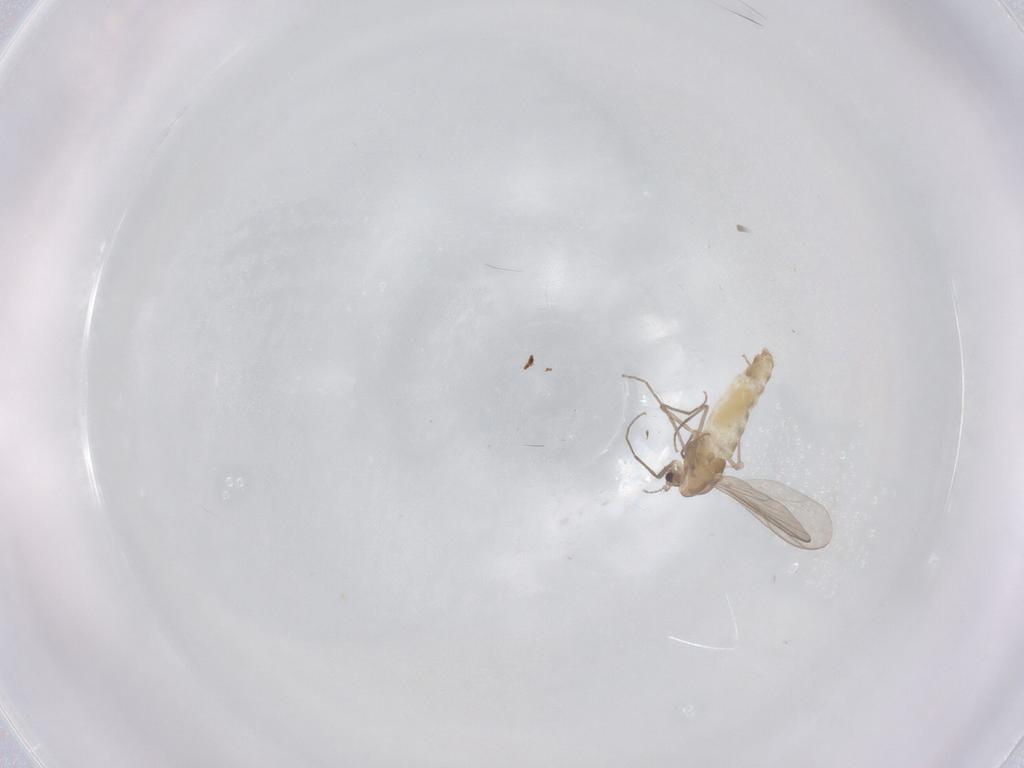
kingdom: Animalia
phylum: Arthropoda
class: Insecta
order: Diptera
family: Chironomidae
